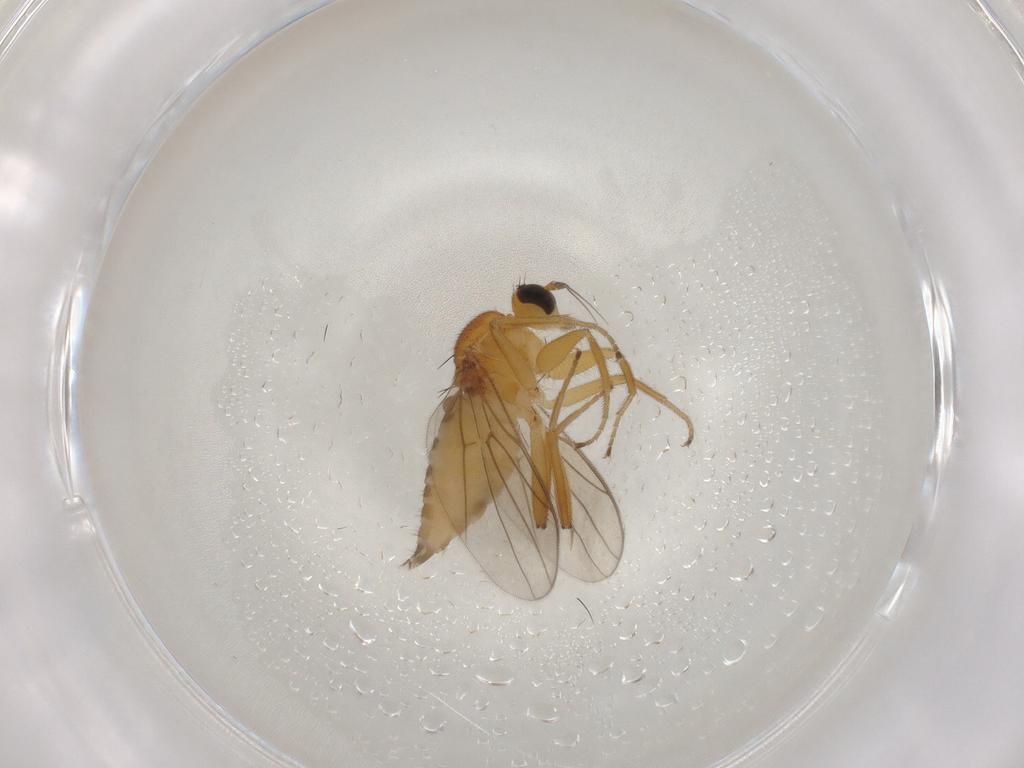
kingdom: Animalia
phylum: Arthropoda
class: Insecta
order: Diptera
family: Hybotidae
